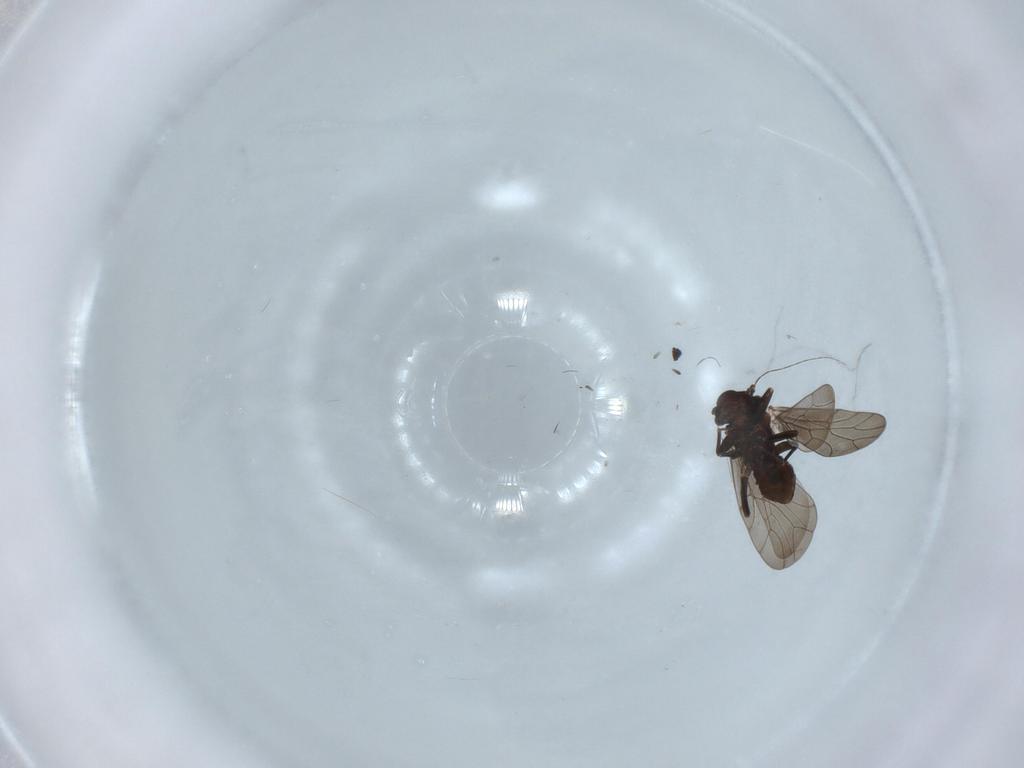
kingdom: Animalia
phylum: Arthropoda
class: Insecta
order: Psocodea
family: Lepidopsocidae
